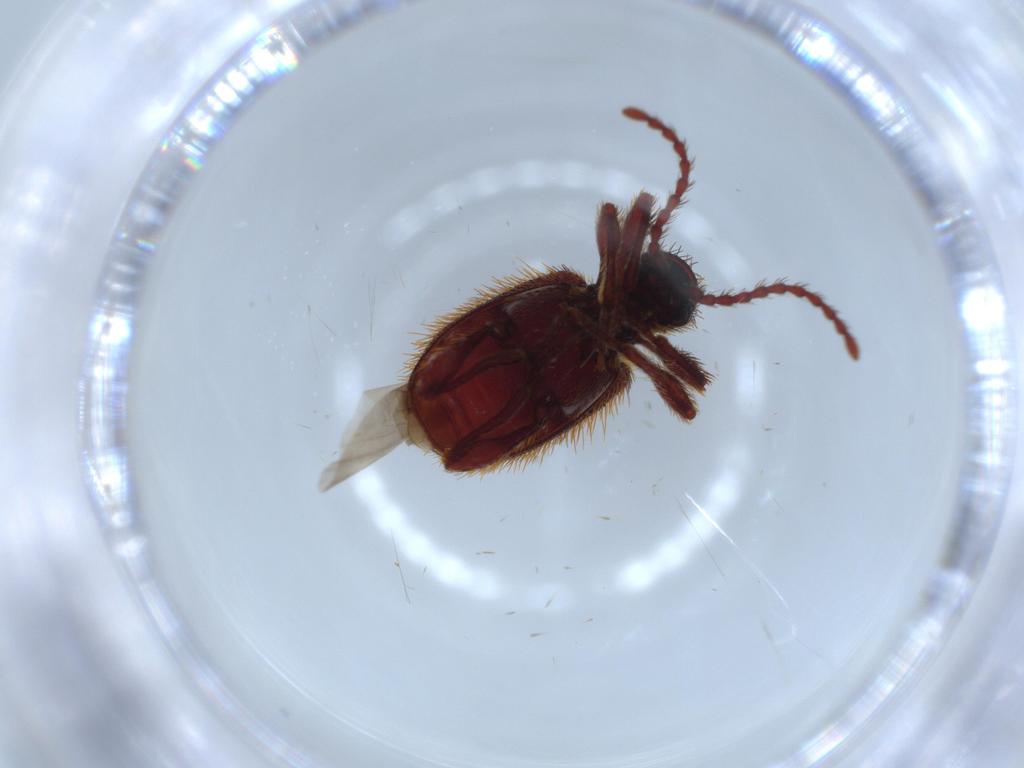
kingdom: Animalia
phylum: Arthropoda
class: Insecta
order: Coleoptera
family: Ptinidae
